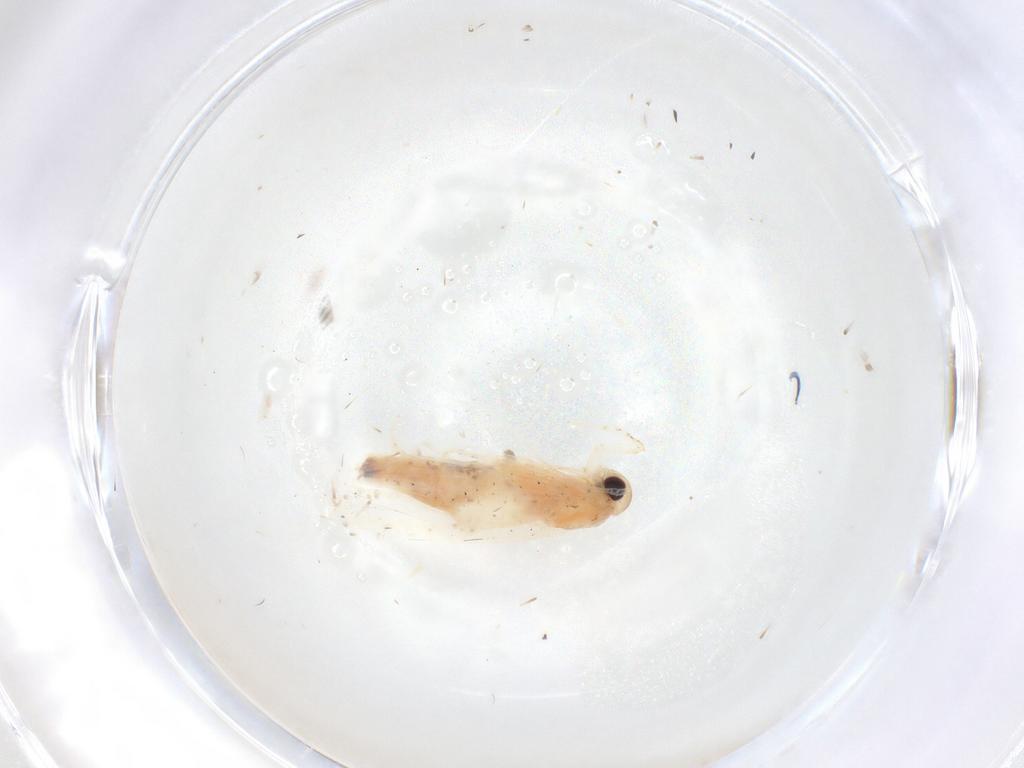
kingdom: Animalia
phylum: Arthropoda
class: Insecta
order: Lepidoptera
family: Gelechiidae
